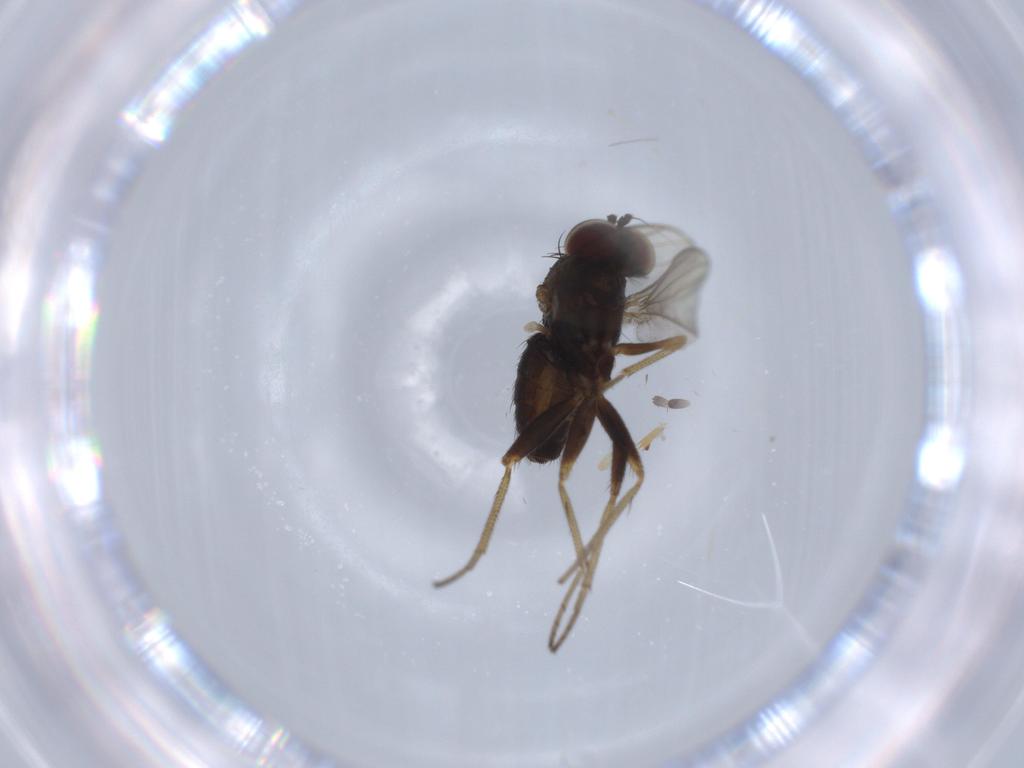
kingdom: Animalia
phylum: Arthropoda
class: Insecta
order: Diptera
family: Dolichopodidae
